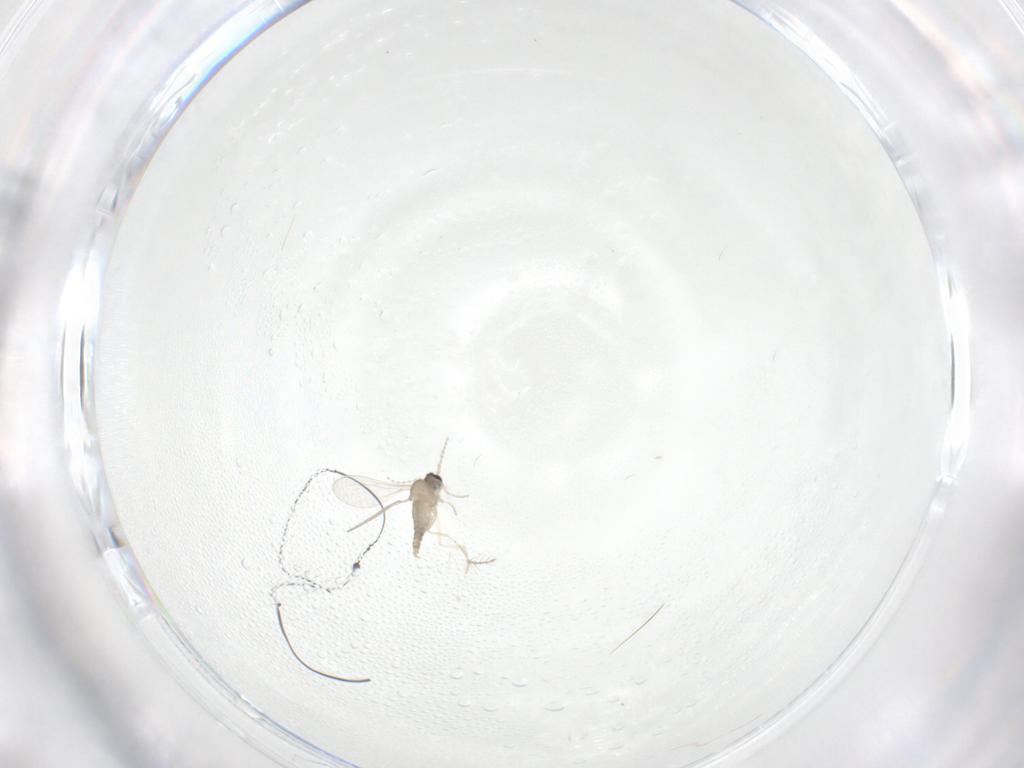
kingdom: Animalia
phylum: Arthropoda
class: Insecta
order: Diptera
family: Cecidomyiidae
